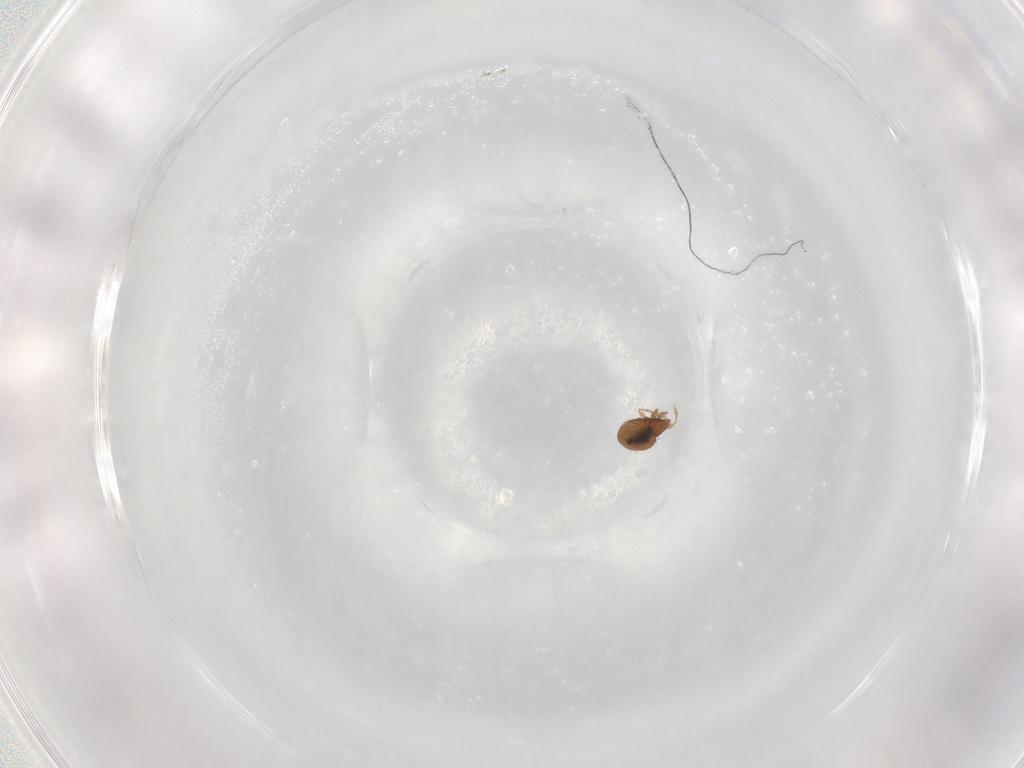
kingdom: Animalia
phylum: Arthropoda
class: Arachnida
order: Sarcoptiformes
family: Oribatulidae
